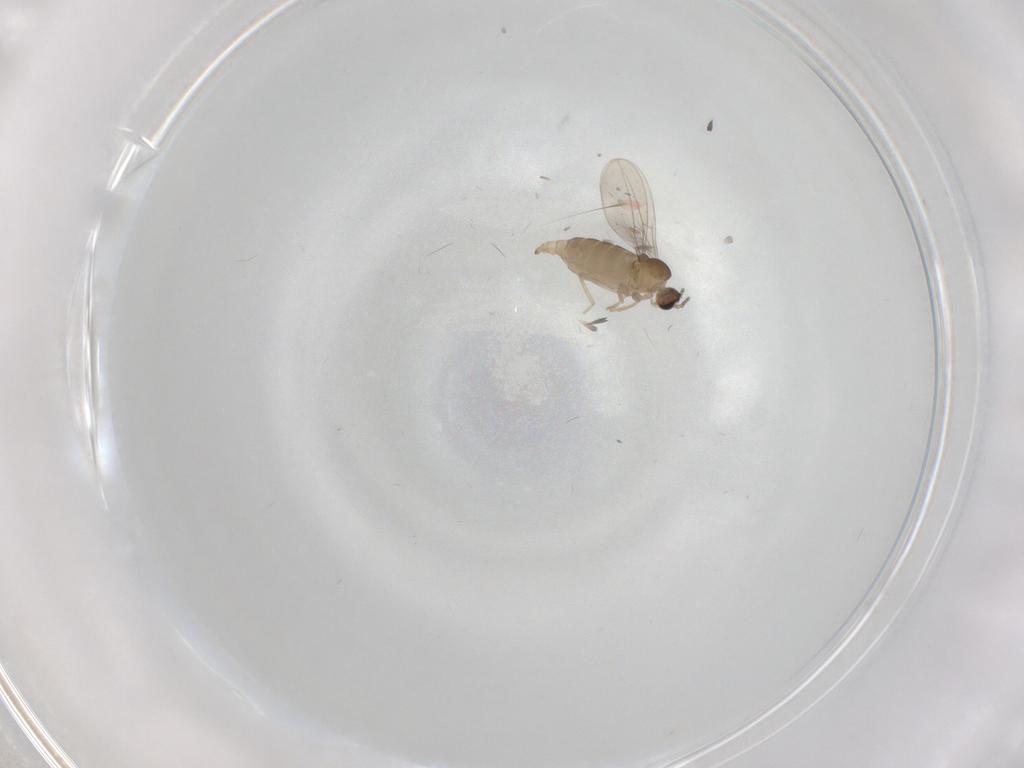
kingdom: Animalia
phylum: Arthropoda
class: Insecta
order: Diptera
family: Cecidomyiidae
